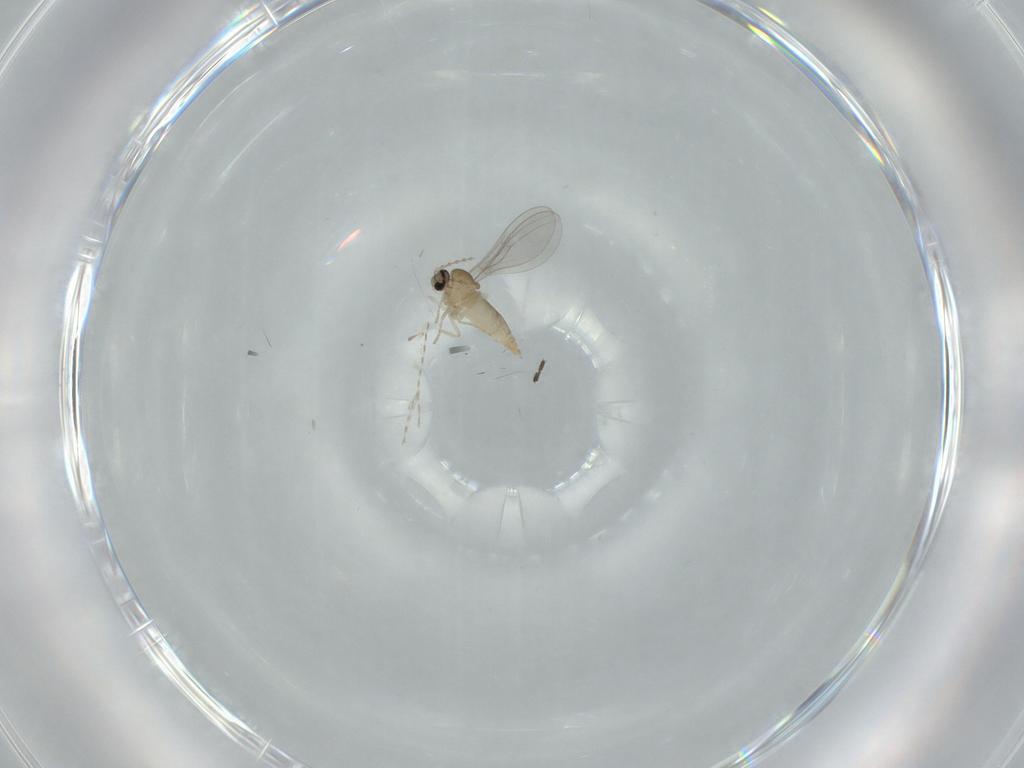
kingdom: Animalia
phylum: Arthropoda
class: Insecta
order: Diptera
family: Cecidomyiidae
